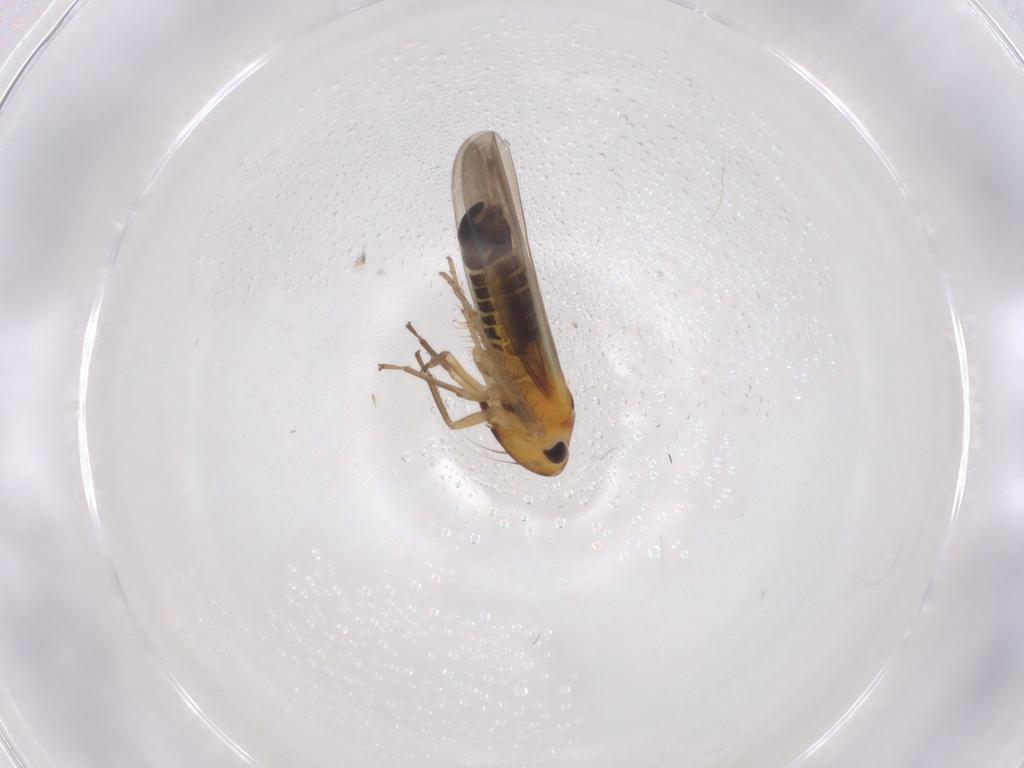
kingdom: Animalia
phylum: Arthropoda
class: Insecta
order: Hemiptera
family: Cicadellidae
